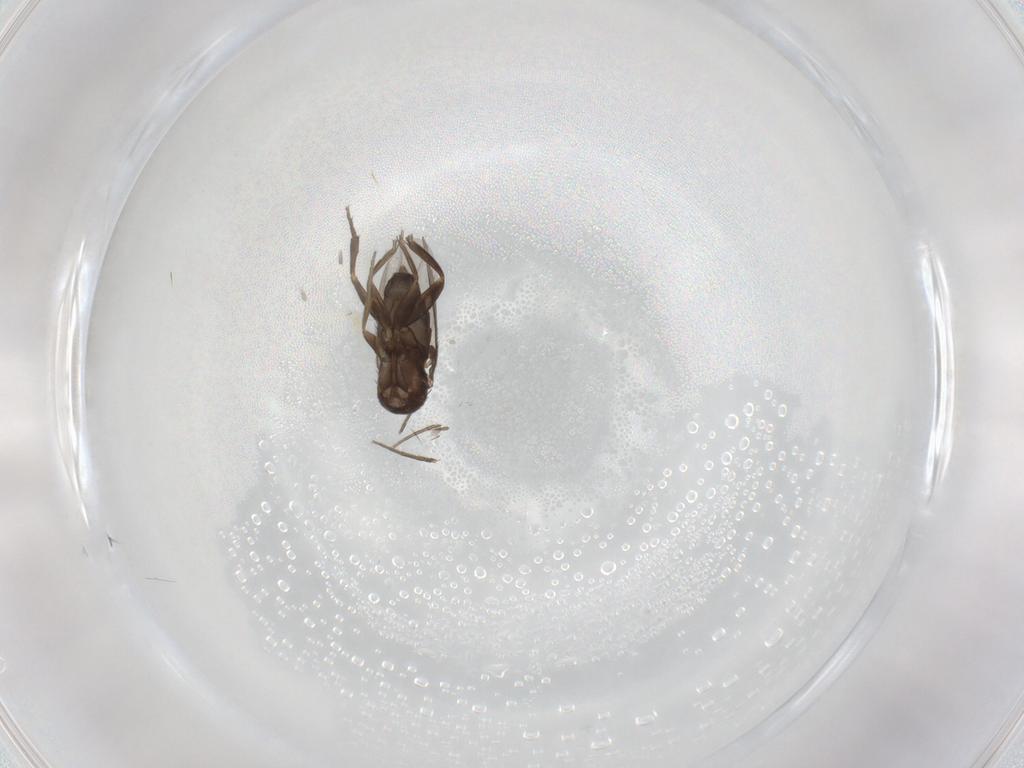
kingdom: Animalia
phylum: Arthropoda
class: Insecta
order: Diptera
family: Phoridae
